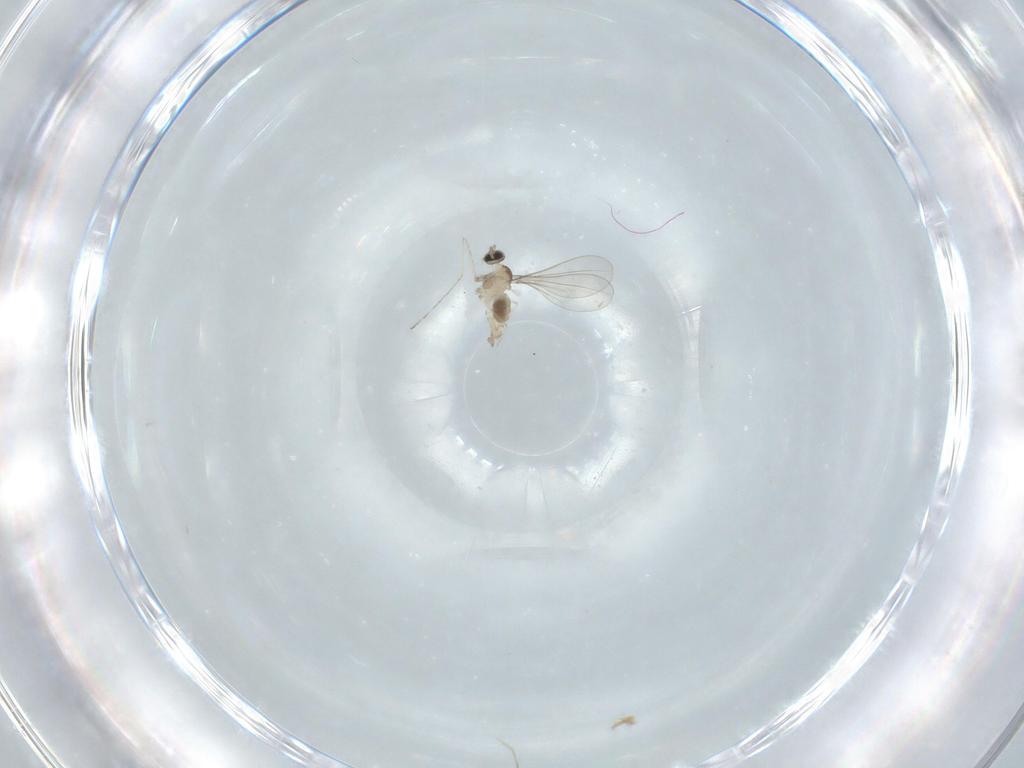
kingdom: Animalia
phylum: Arthropoda
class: Insecta
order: Diptera
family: Cecidomyiidae
